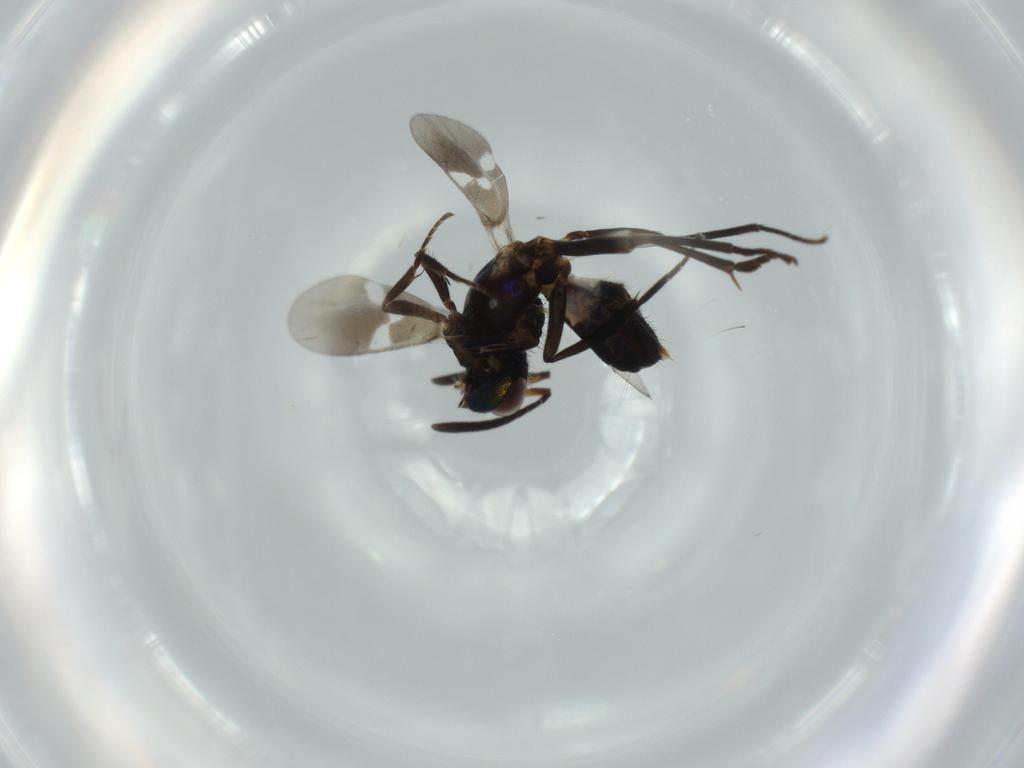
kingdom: Animalia
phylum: Arthropoda
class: Insecta
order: Hymenoptera
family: Eupelmidae
